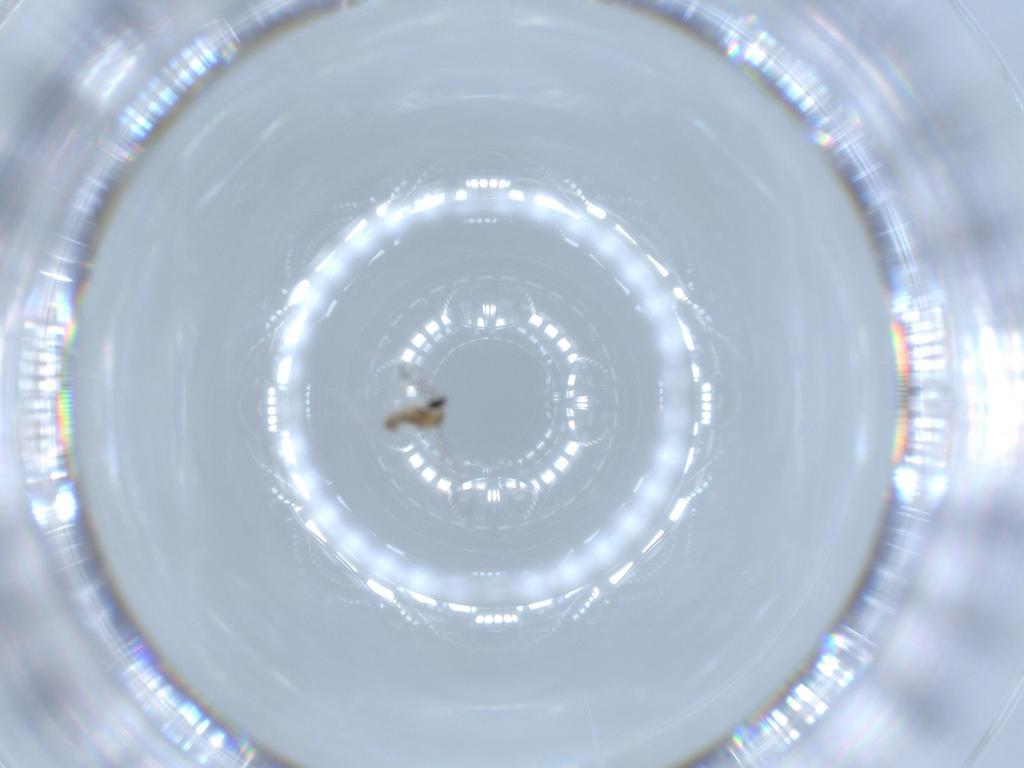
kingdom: Animalia
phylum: Arthropoda
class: Insecta
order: Diptera
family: Cecidomyiidae
